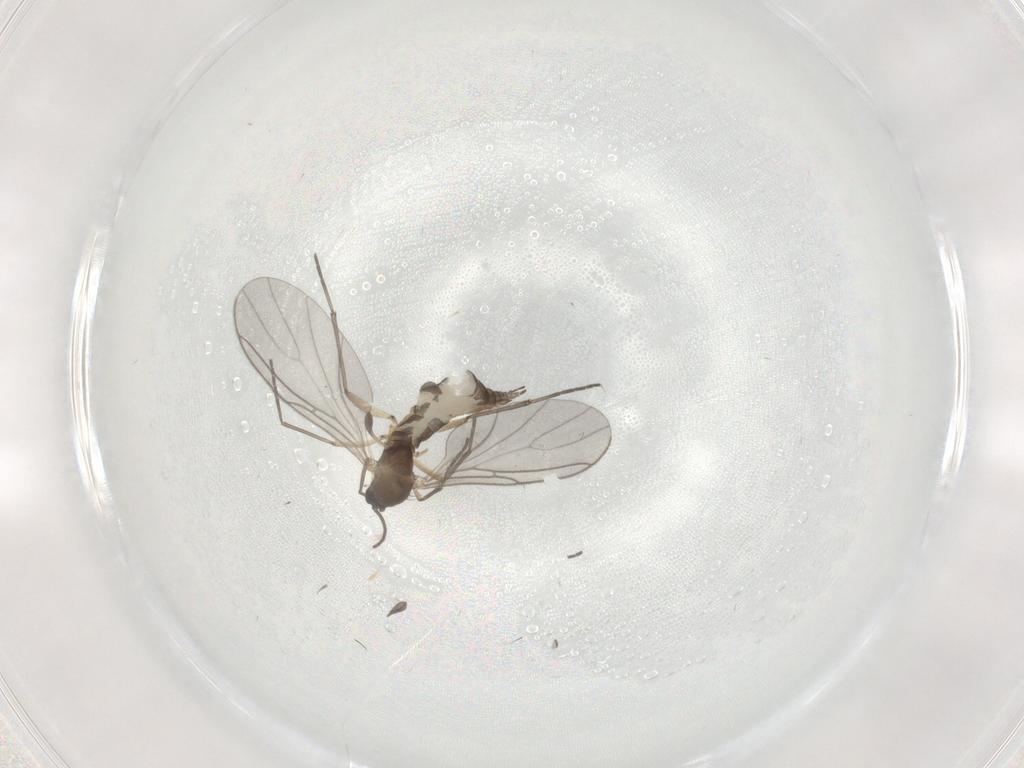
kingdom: Animalia
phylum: Arthropoda
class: Insecta
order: Diptera
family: Sciaridae
